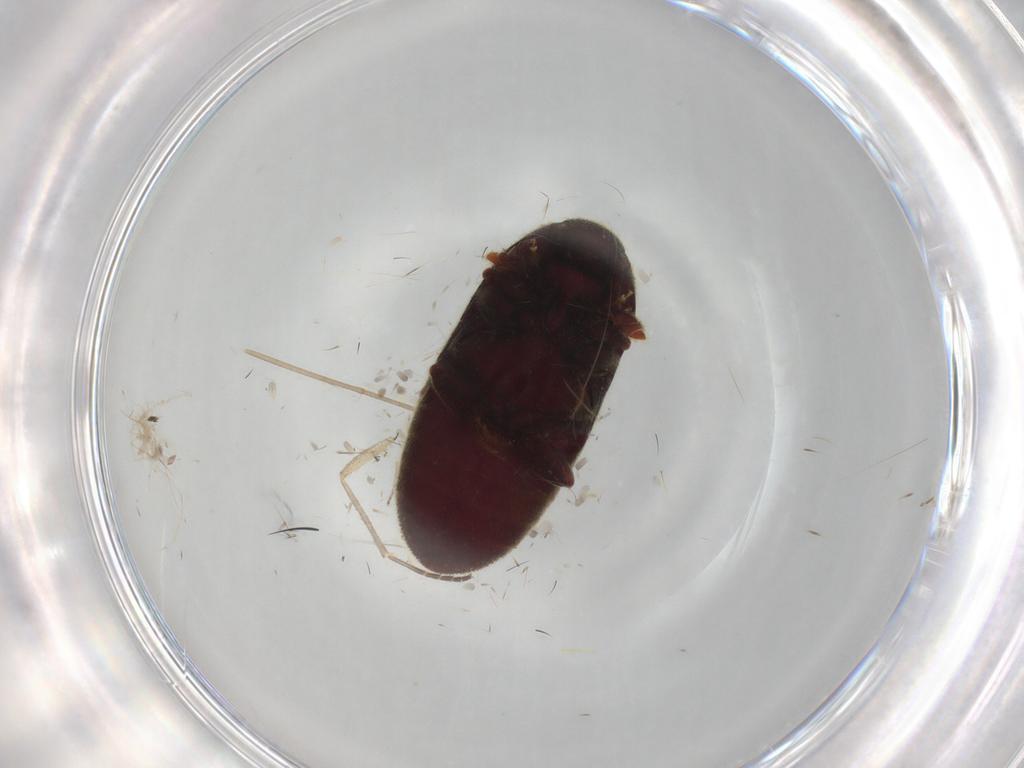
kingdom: Animalia
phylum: Arthropoda
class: Insecta
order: Coleoptera
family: Throscidae
